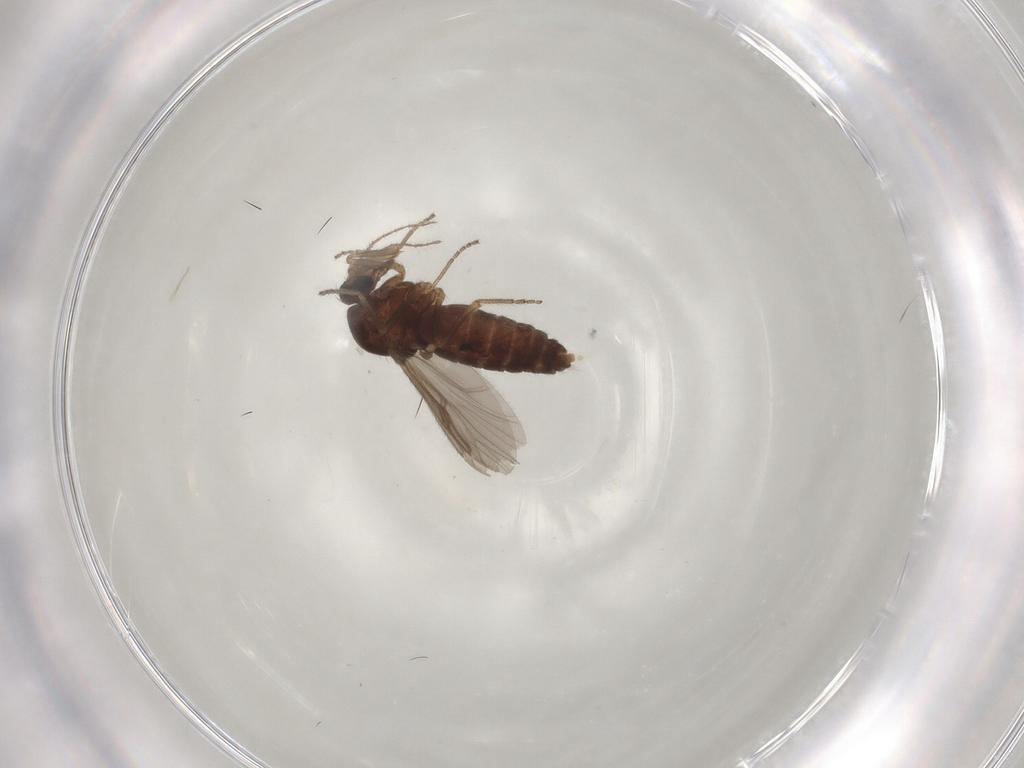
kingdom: Animalia
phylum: Arthropoda
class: Insecta
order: Diptera
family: Ceratopogonidae
